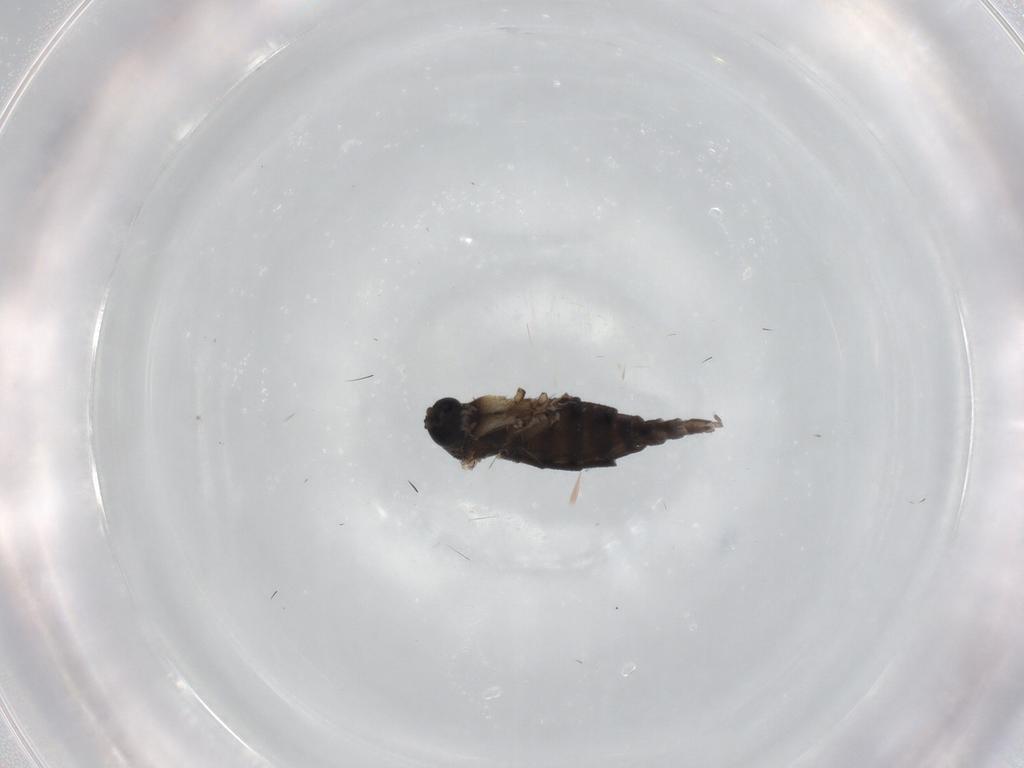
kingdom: Animalia
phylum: Arthropoda
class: Insecta
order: Diptera
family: Sciaridae
